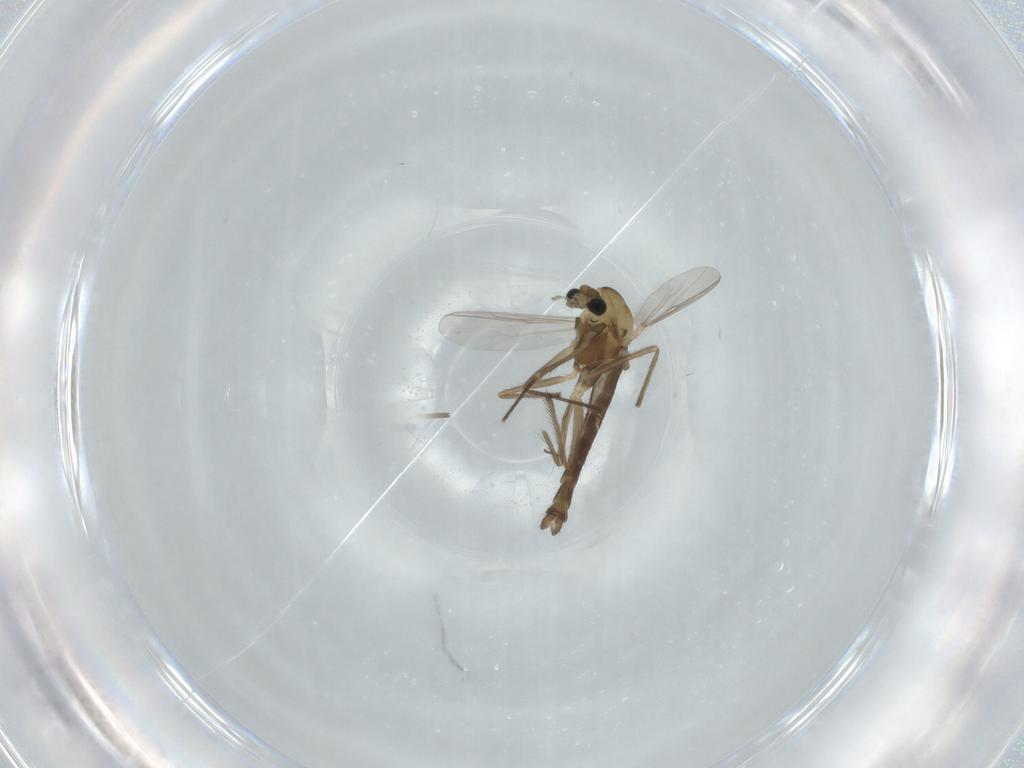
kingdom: Animalia
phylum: Arthropoda
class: Insecta
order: Diptera
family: Chironomidae
